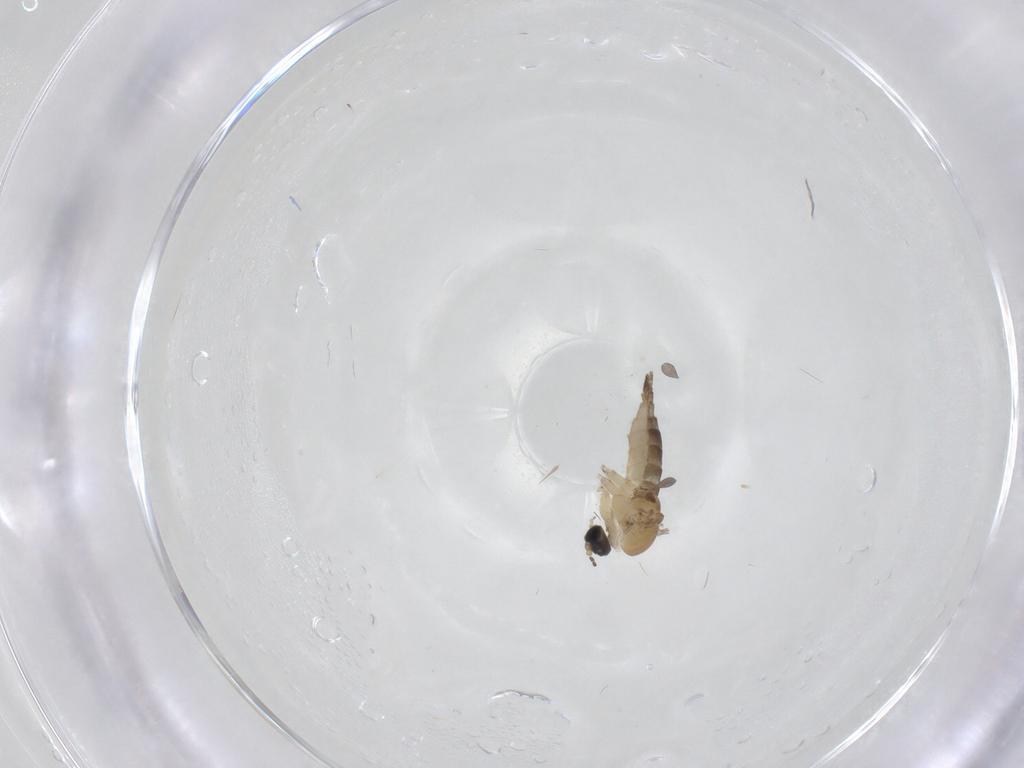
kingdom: Animalia
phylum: Arthropoda
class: Insecta
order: Diptera
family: Sciaridae
